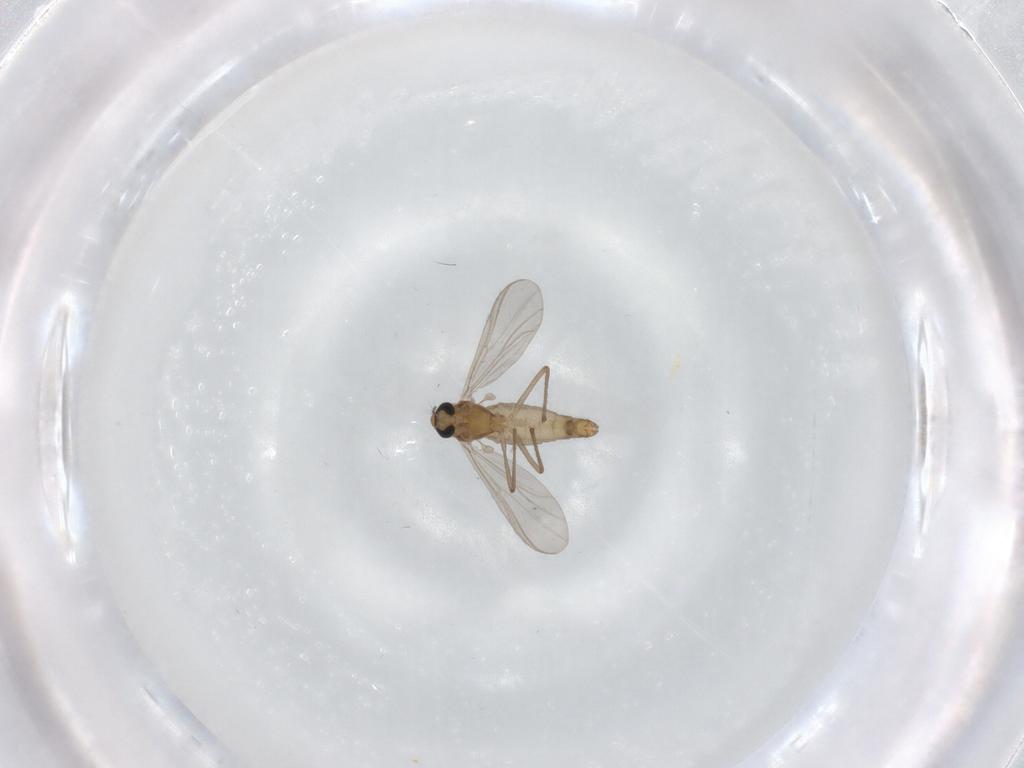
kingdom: Animalia
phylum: Arthropoda
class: Insecta
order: Diptera
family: Chironomidae
